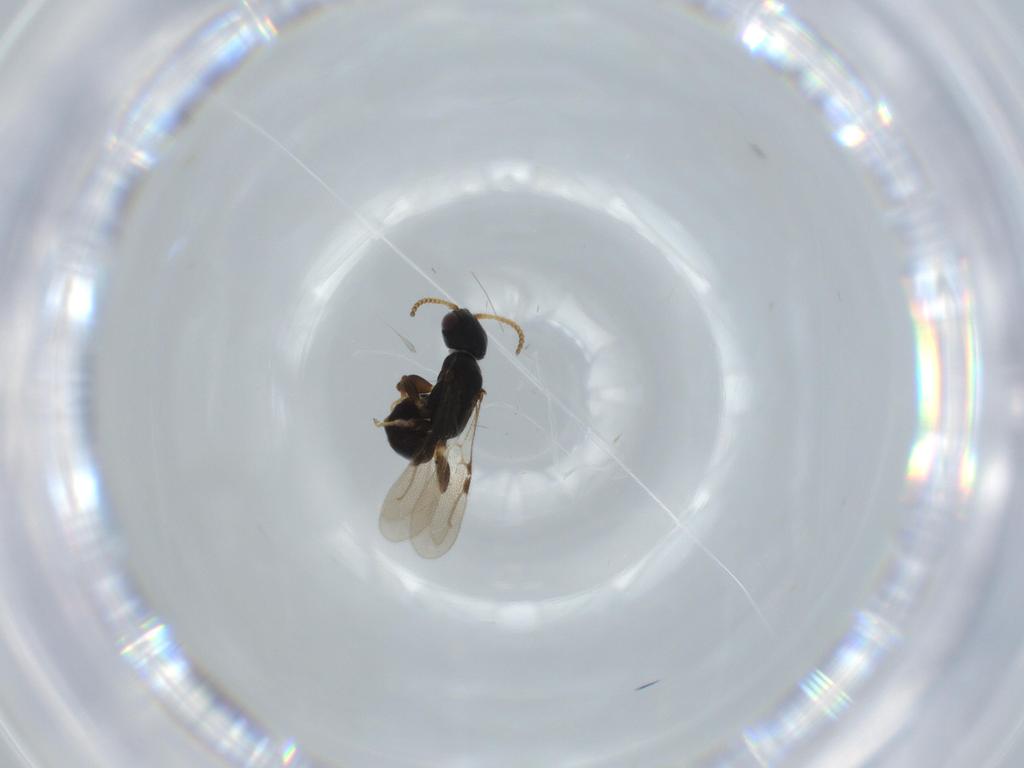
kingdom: Animalia
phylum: Arthropoda
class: Insecta
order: Hymenoptera
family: Bethylidae
